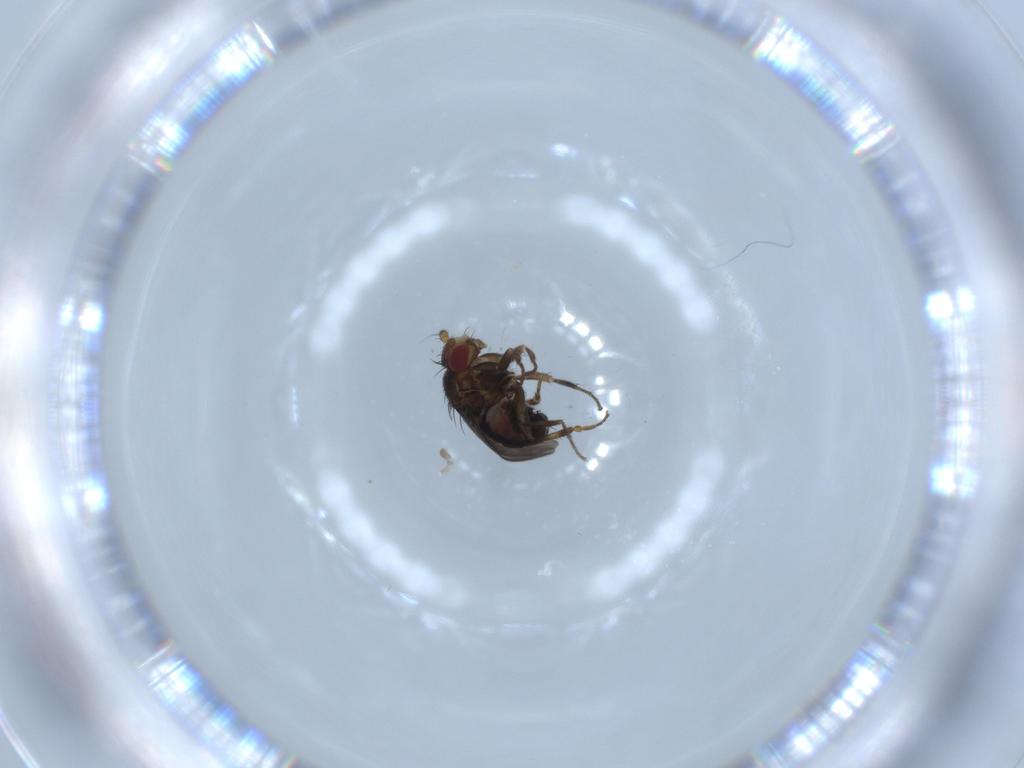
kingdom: Animalia
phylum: Arthropoda
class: Insecta
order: Diptera
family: Sphaeroceridae
